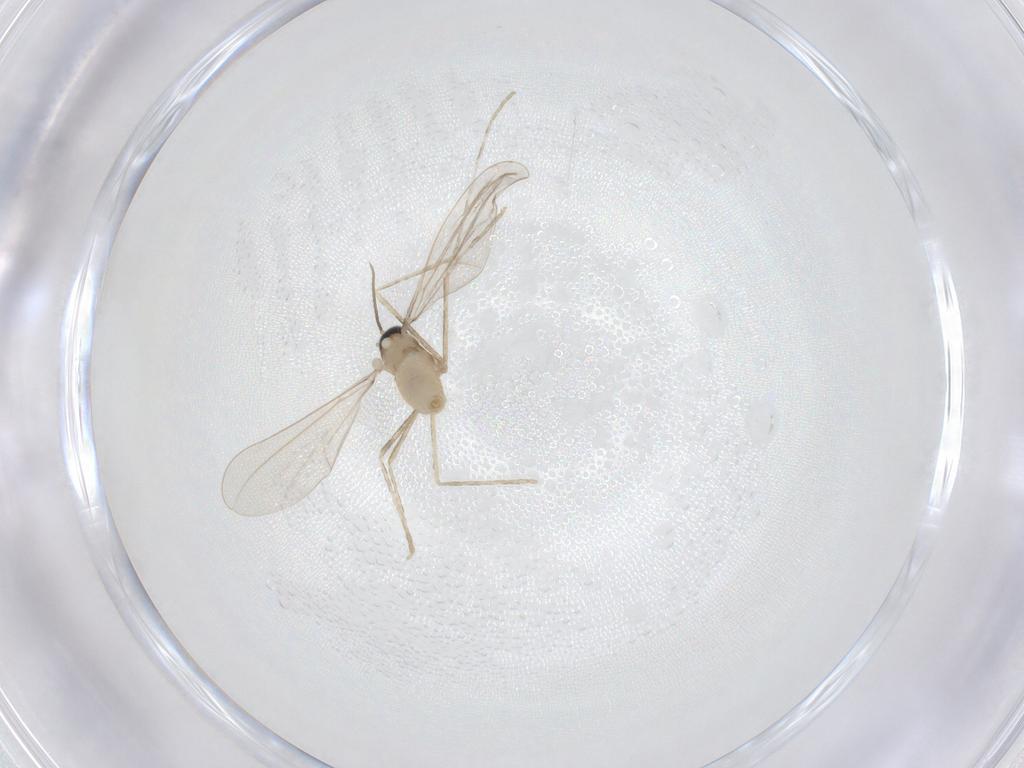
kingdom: Animalia
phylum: Arthropoda
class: Insecta
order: Diptera
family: Cecidomyiidae
